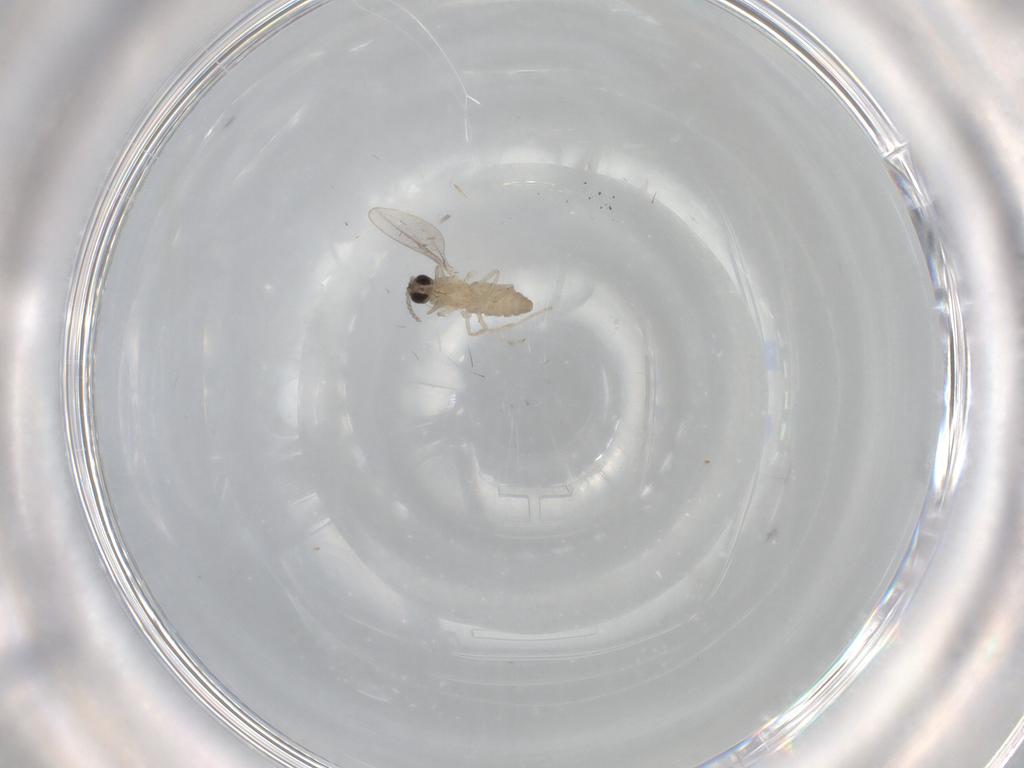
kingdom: Animalia
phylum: Arthropoda
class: Insecta
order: Diptera
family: Cecidomyiidae
